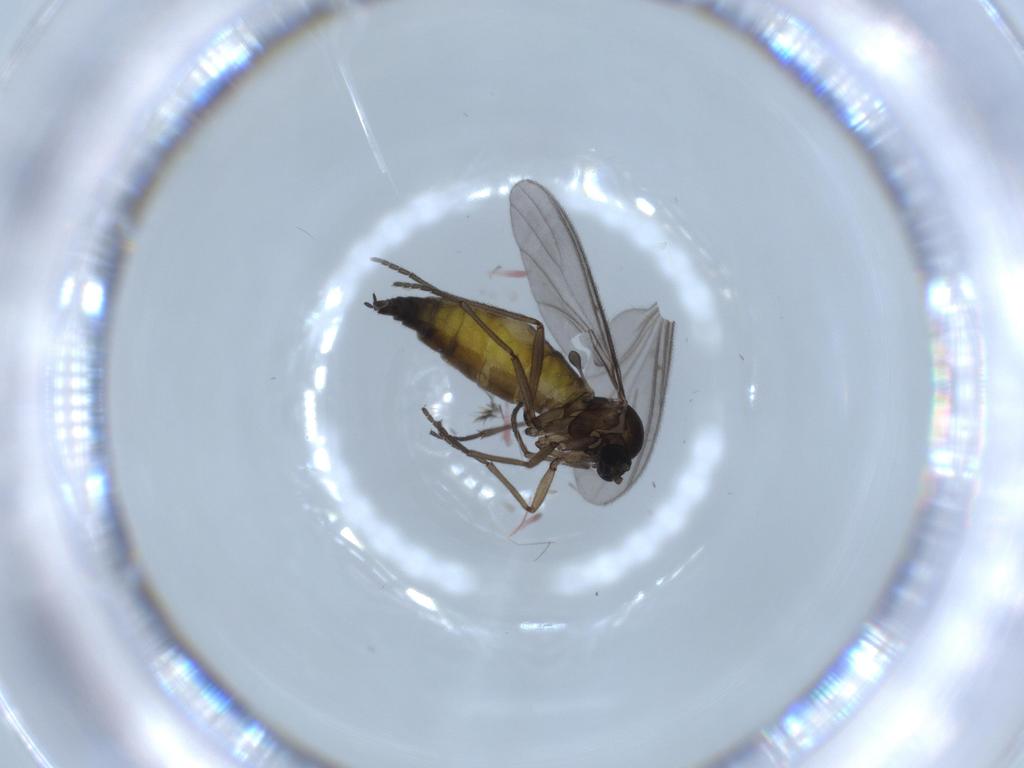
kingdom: Animalia
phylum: Arthropoda
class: Insecta
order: Diptera
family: Sciaridae
